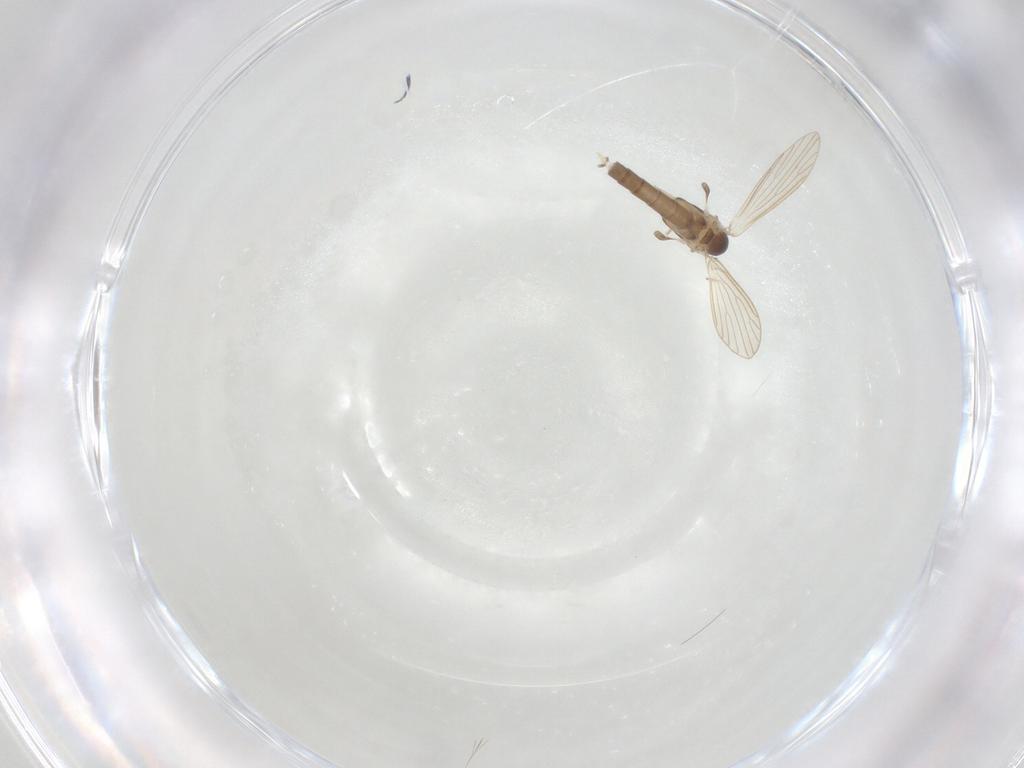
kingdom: Animalia
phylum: Arthropoda
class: Insecta
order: Diptera
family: Psychodidae
